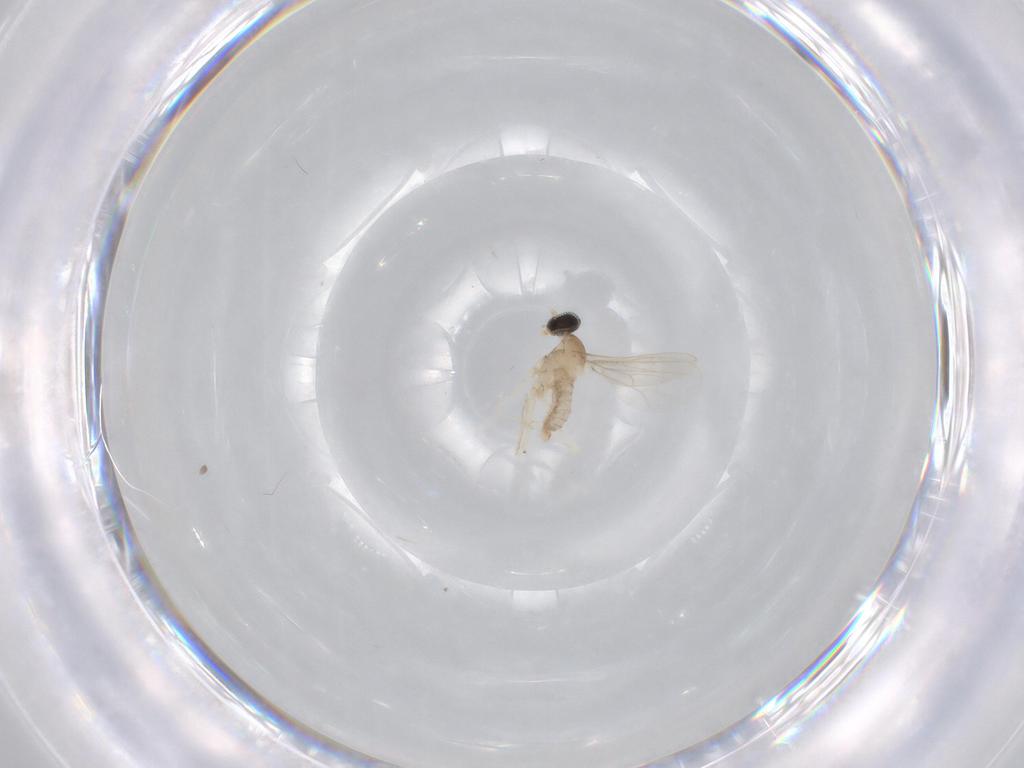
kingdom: Animalia
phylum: Arthropoda
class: Insecta
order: Diptera
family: Cecidomyiidae
